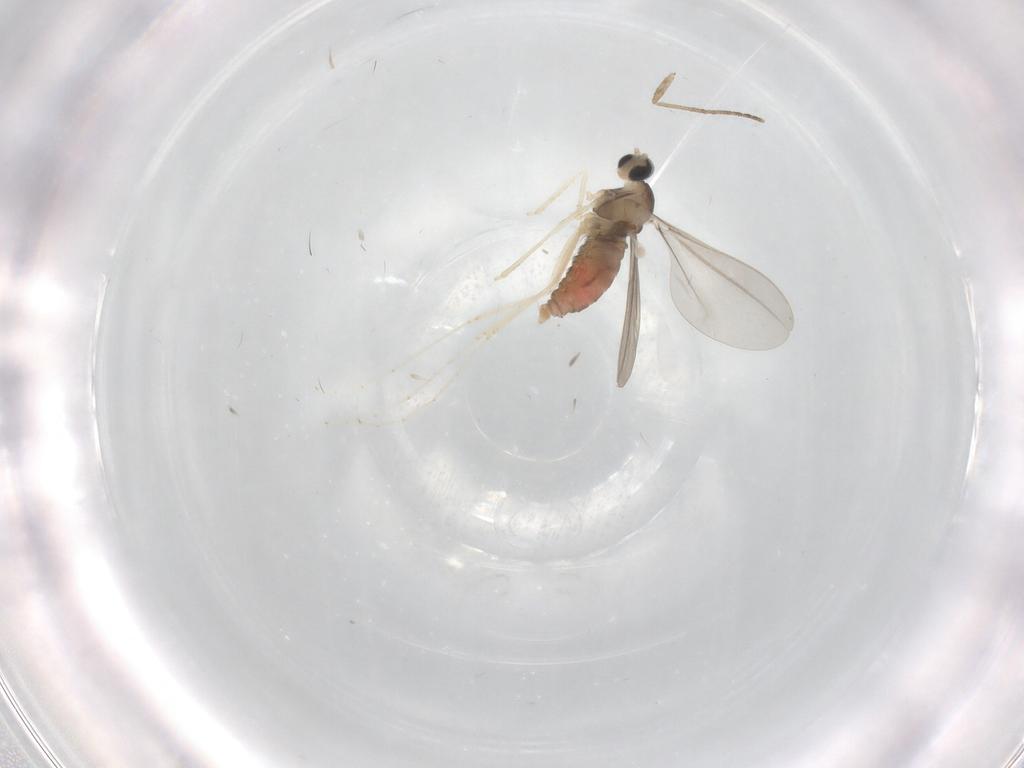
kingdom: Animalia
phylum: Arthropoda
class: Insecta
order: Diptera
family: Cecidomyiidae
